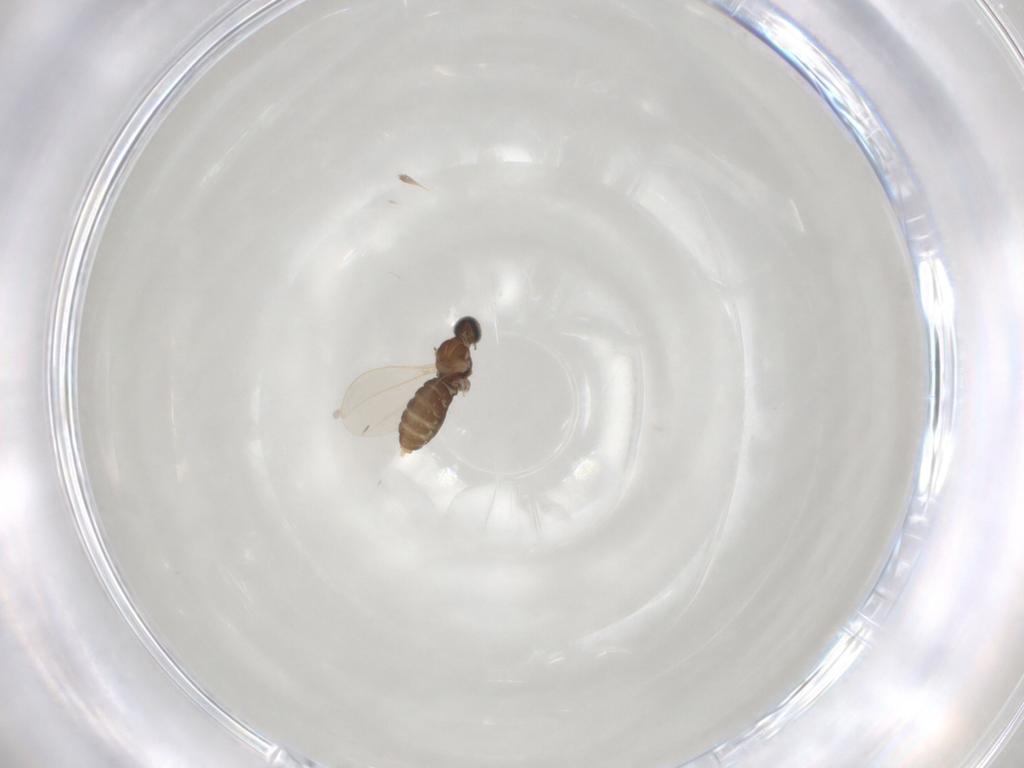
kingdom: Animalia
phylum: Arthropoda
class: Insecta
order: Diptera
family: Cecidomyiidae
